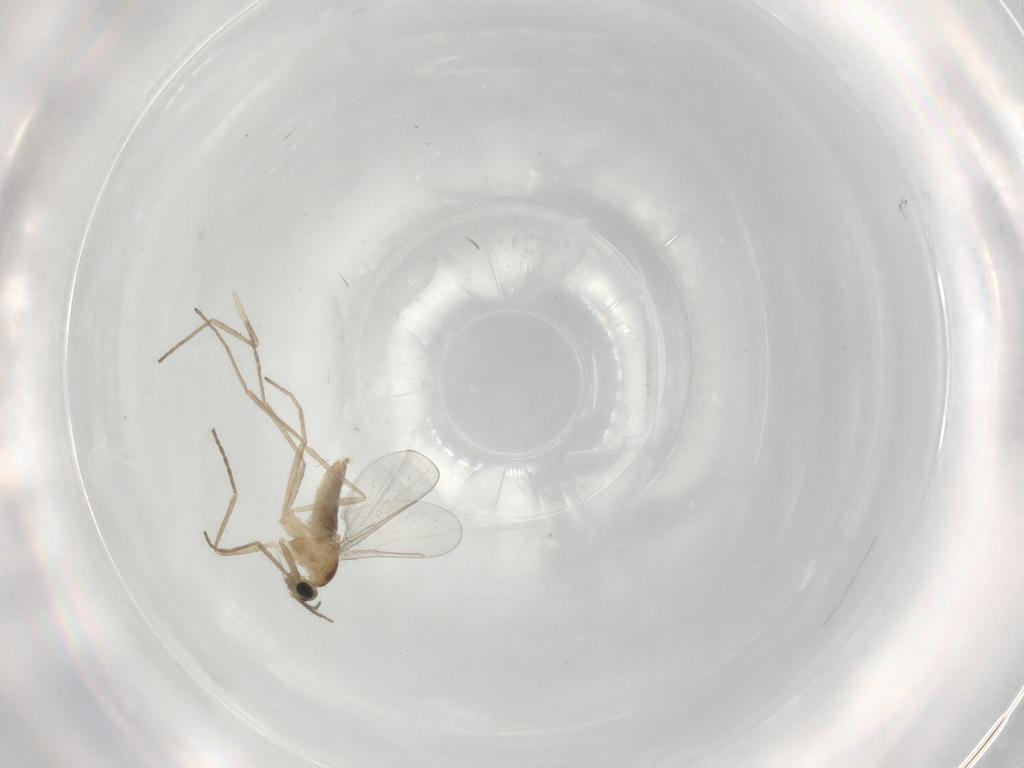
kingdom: Animalia
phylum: Arthropoda
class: Insecta
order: Diptera
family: Cecidomyiidae
